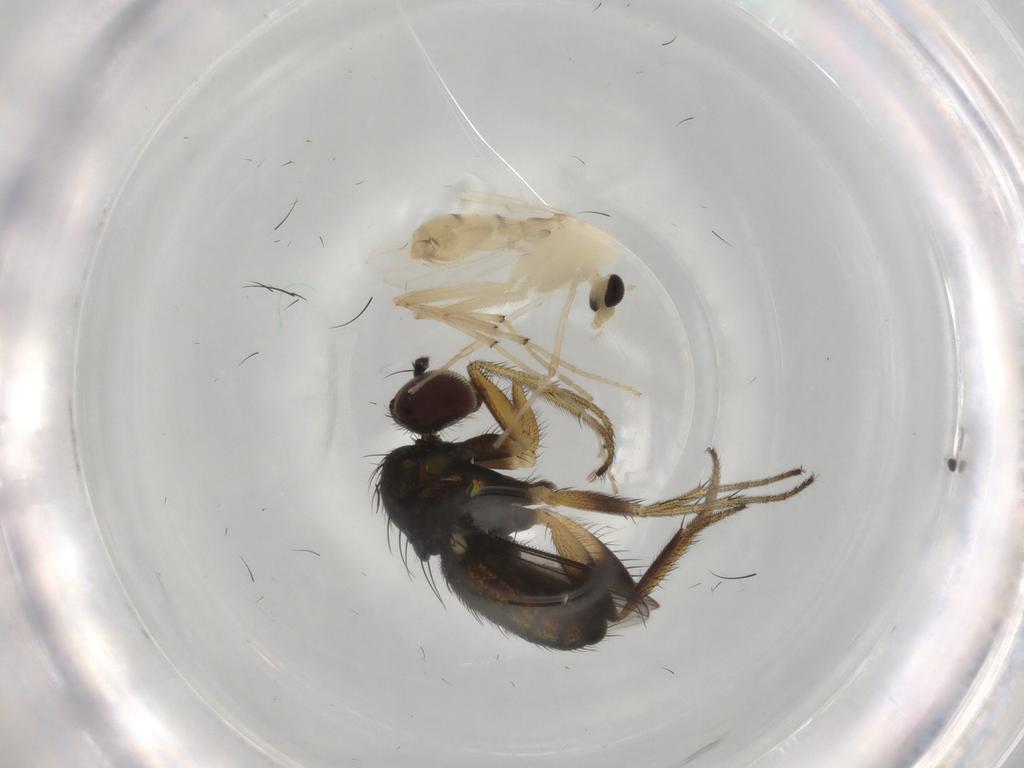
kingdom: Animalia
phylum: Arthropoda
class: Insecta
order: Diptera
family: Chironomidae
